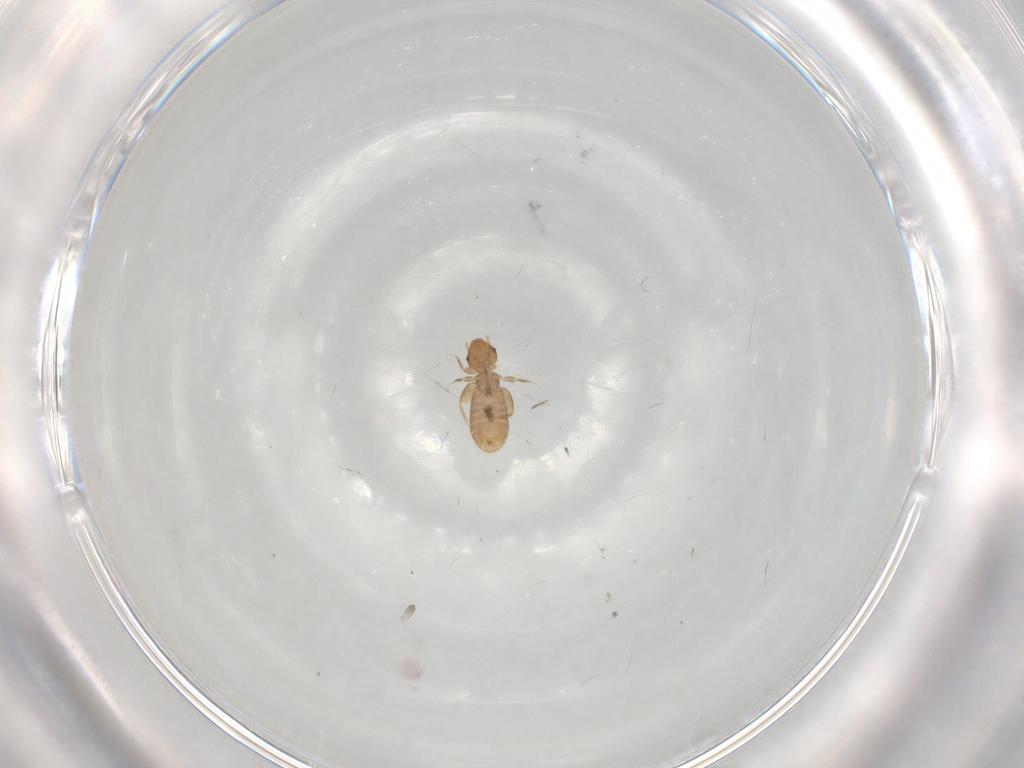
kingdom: Animalia
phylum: Arthropoda
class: Insecta
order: Psocodea
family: Liposcelididae
